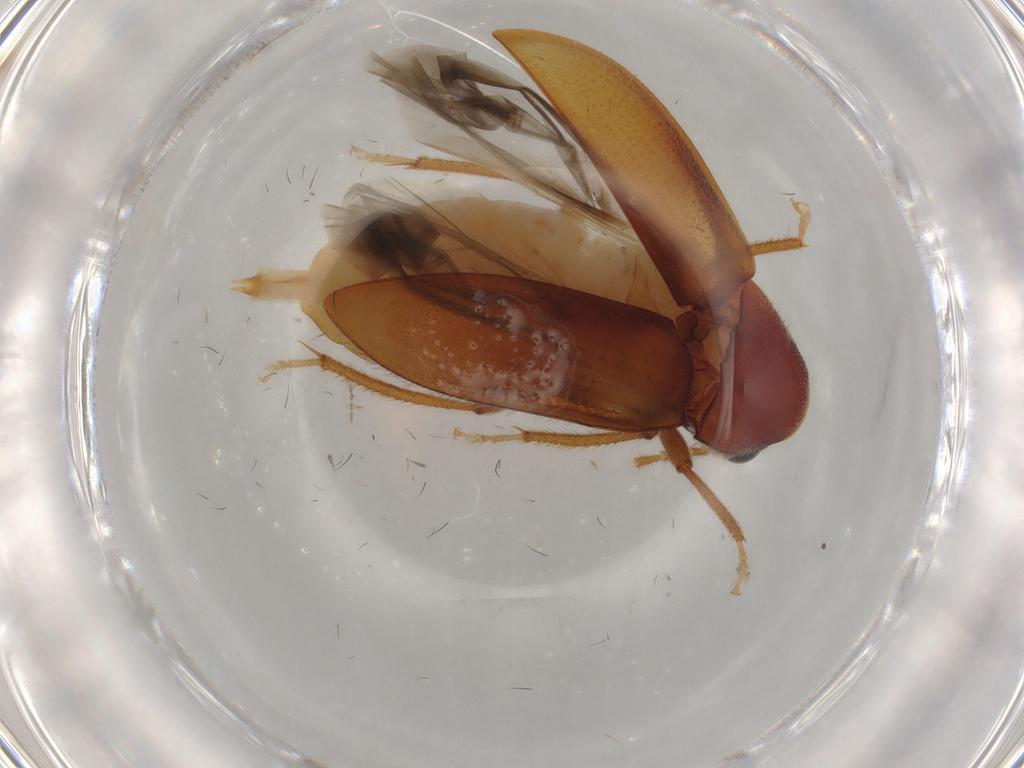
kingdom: Animalia
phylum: Arthropoda
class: Insecta
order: Coleoptera
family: Ptilodactylidae
